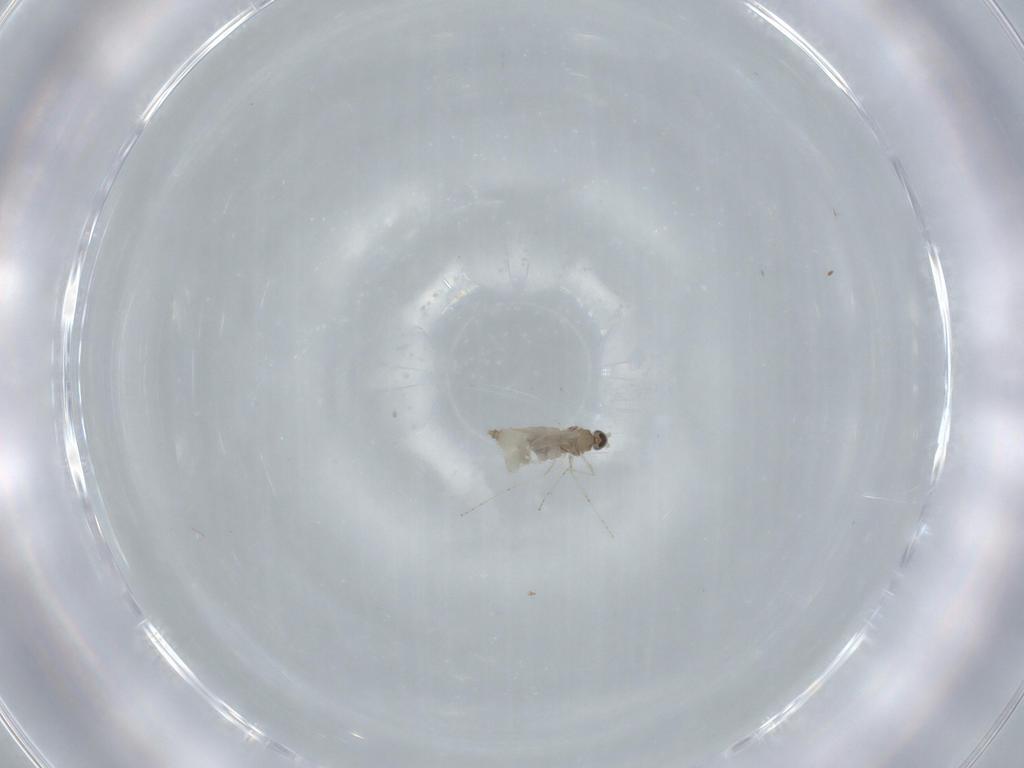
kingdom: Animalia
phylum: Arthropoda
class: Insecta
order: Diptera
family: Cecidomyiidae
